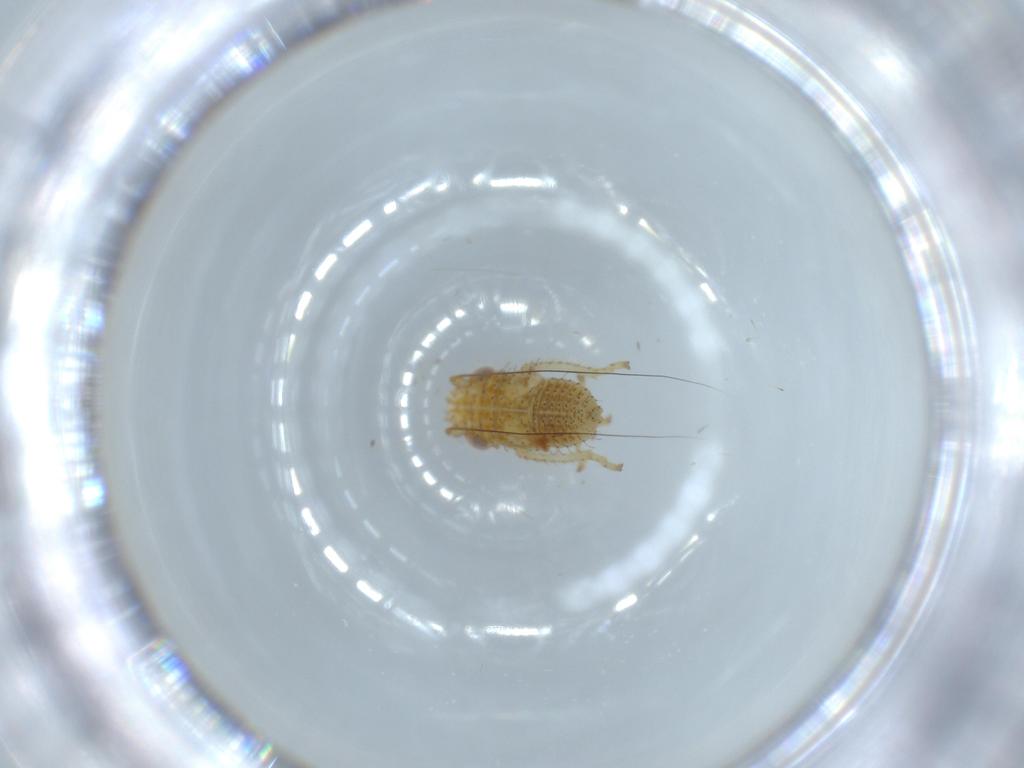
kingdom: Animalia
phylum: Arthropoda
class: Insecta
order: Hemiptera
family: Cicadellidae
